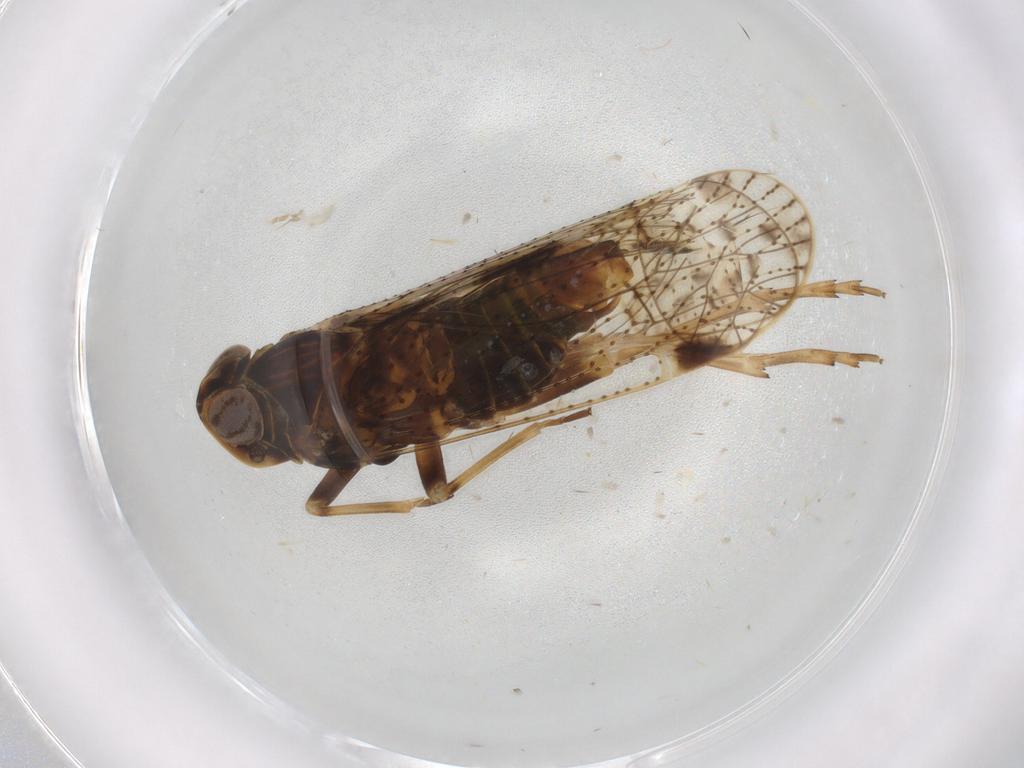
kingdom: Animalia
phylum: Arthropoda
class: Insecta
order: Hemiptera
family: Cixiidae
